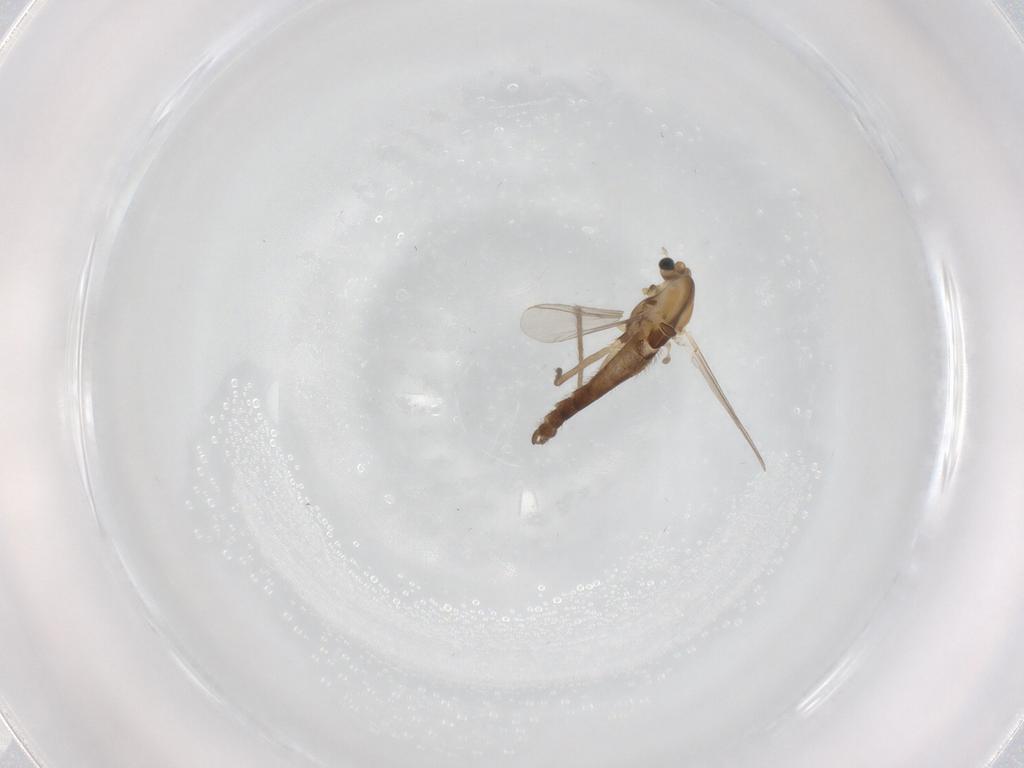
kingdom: Animalia
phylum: Arthropoda
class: Insecta
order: Diptera
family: Chironomidae
